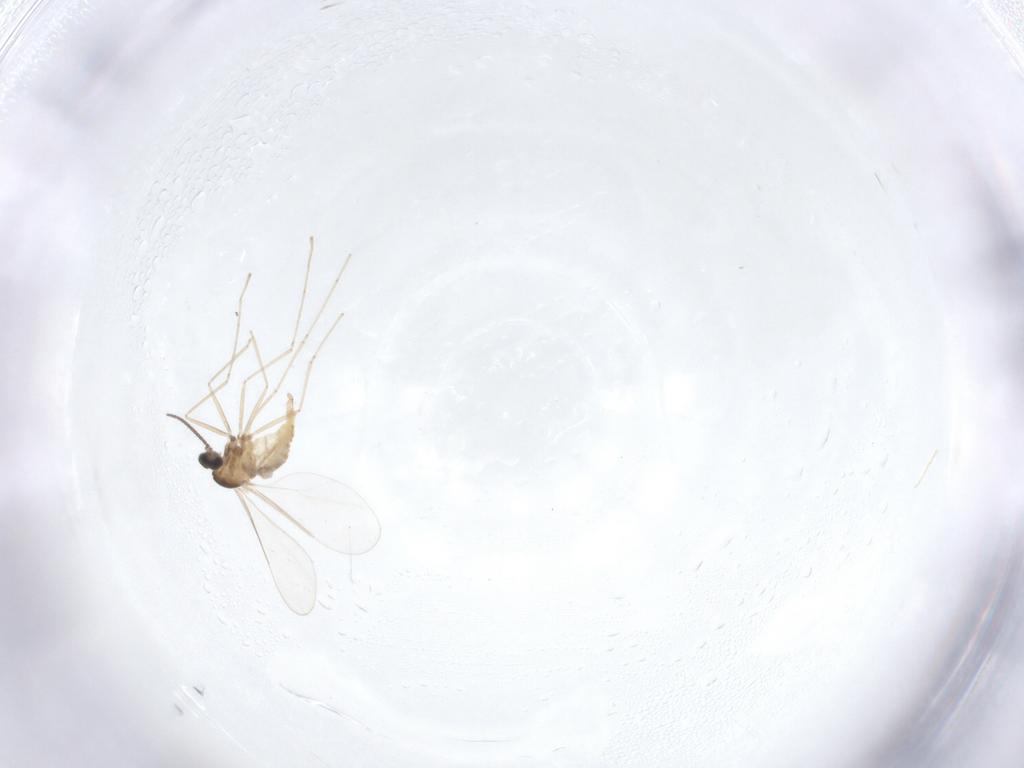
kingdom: Animalia
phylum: Arthropoda
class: Insecta
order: Diptera
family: Cecidomyiidae
